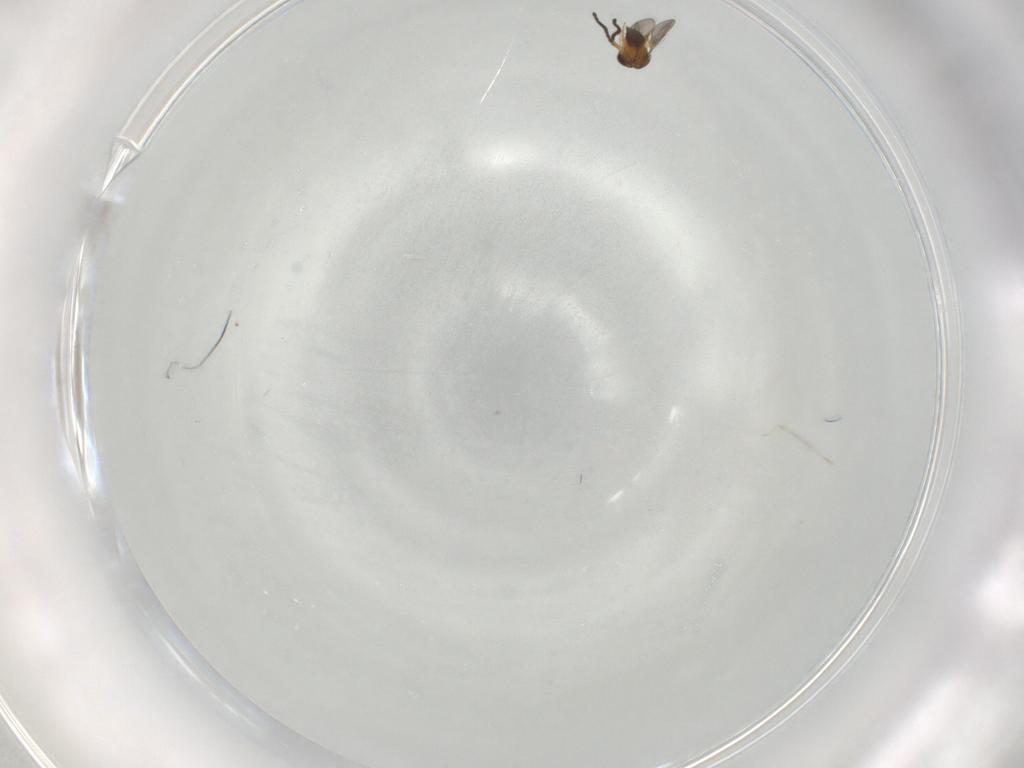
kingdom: Animalia
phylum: Arthropoda
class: Insecta
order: Hymenoptera
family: Ceraphronidae
